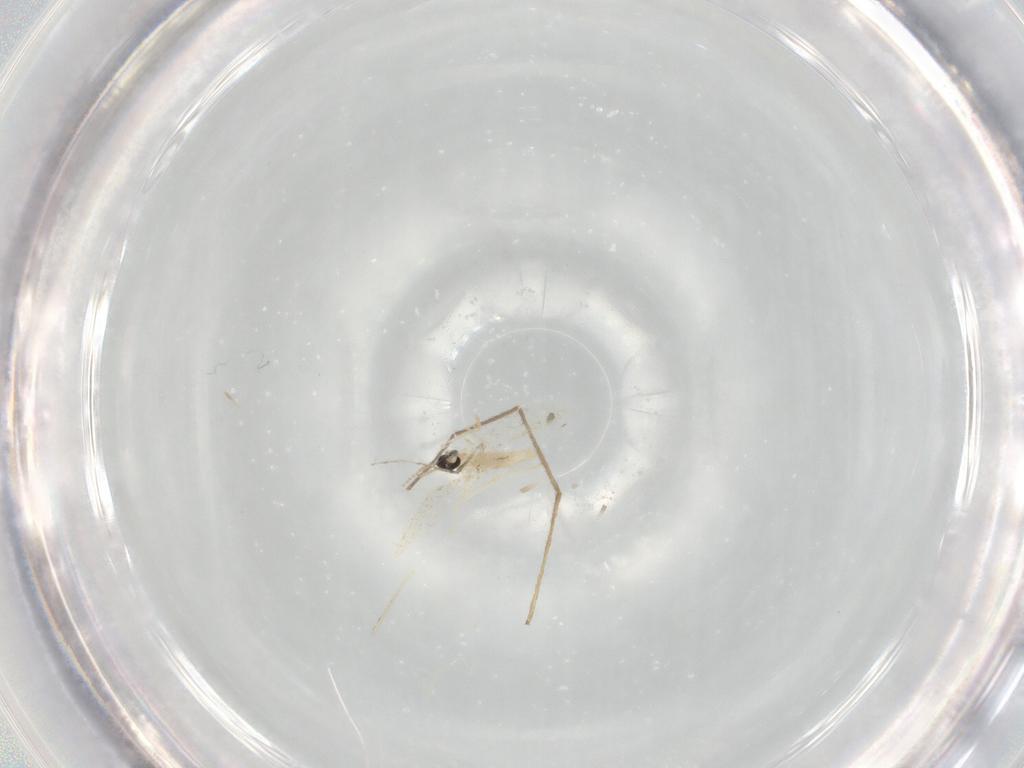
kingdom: Animalia
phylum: Arthropoda
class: Insecta
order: Diptera
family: Cecidomyiidae
